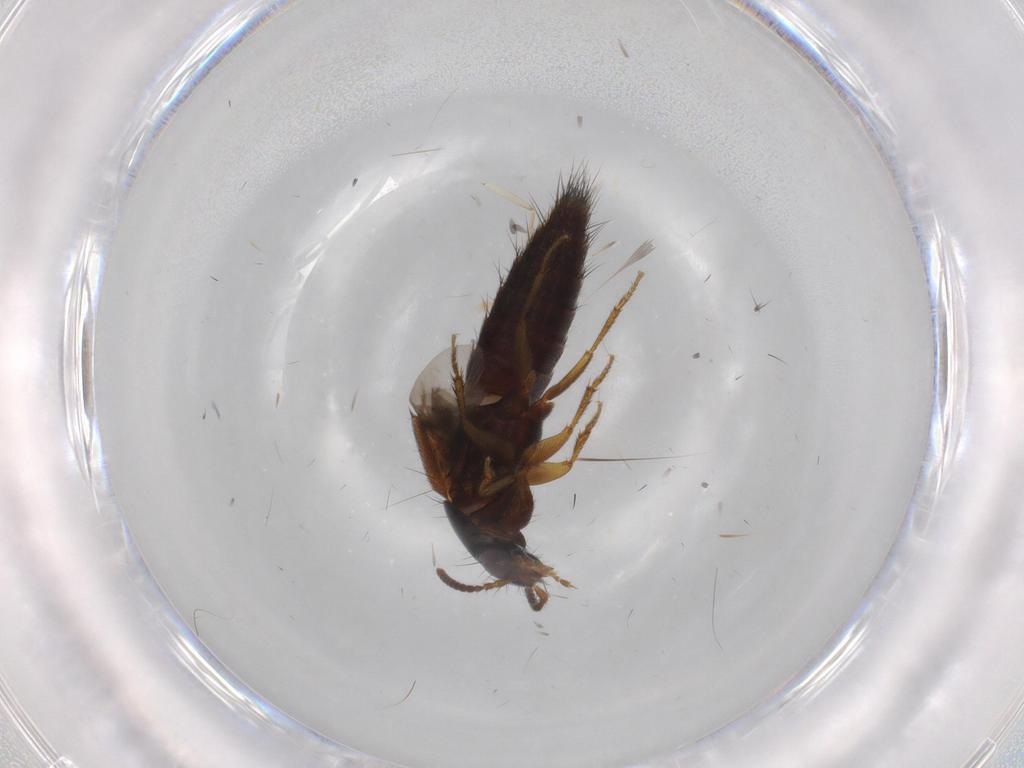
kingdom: Animalia
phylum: Arthropoda
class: Insecta
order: Coleoptera
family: Staphylinidae
